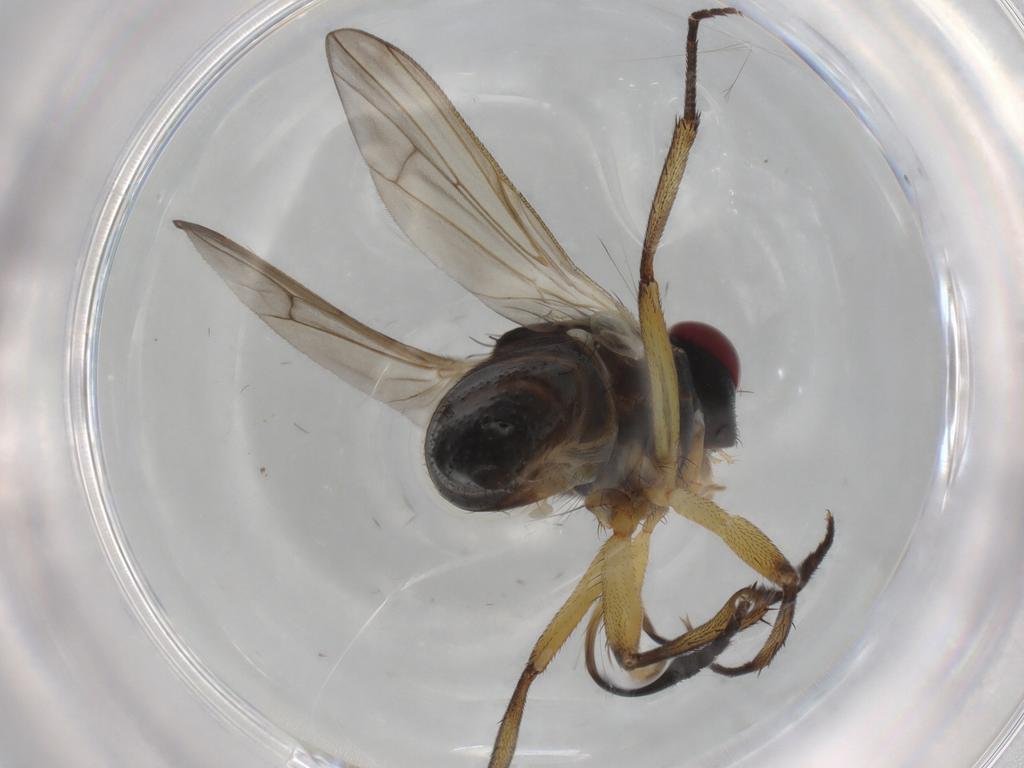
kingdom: Animalia
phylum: Arthropoda
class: Insecta
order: Diptera
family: Tachinidae
